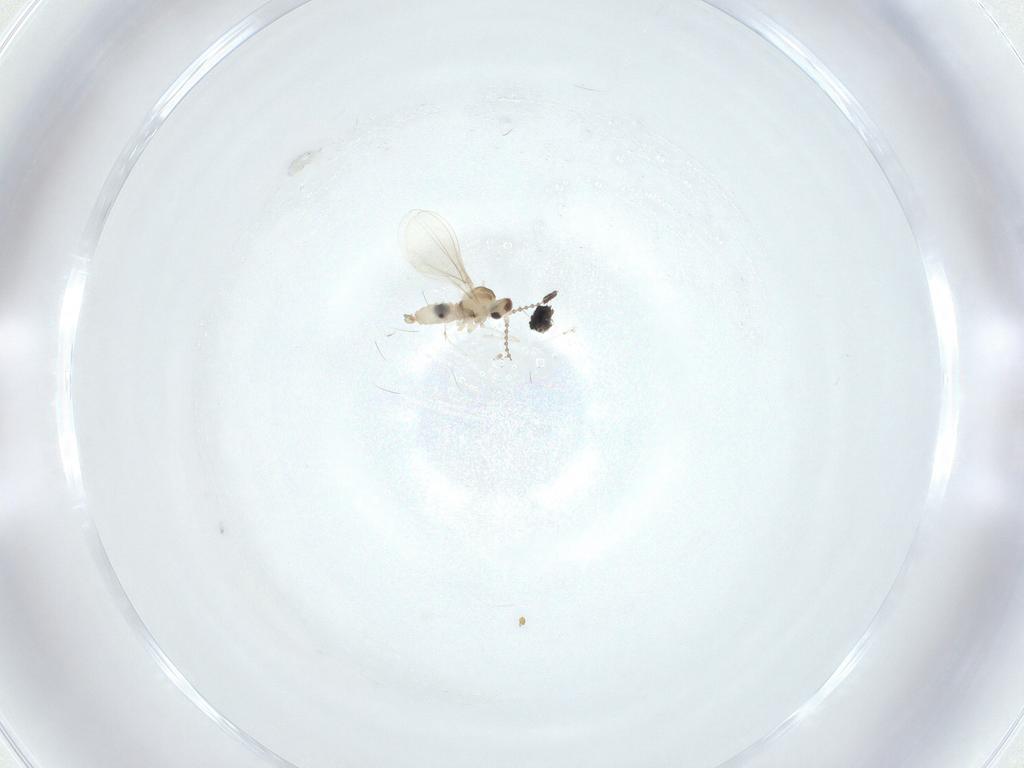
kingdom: Animalia
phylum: Arthropoda
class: Insecta
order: Diptera
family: Cecidomyiidae
